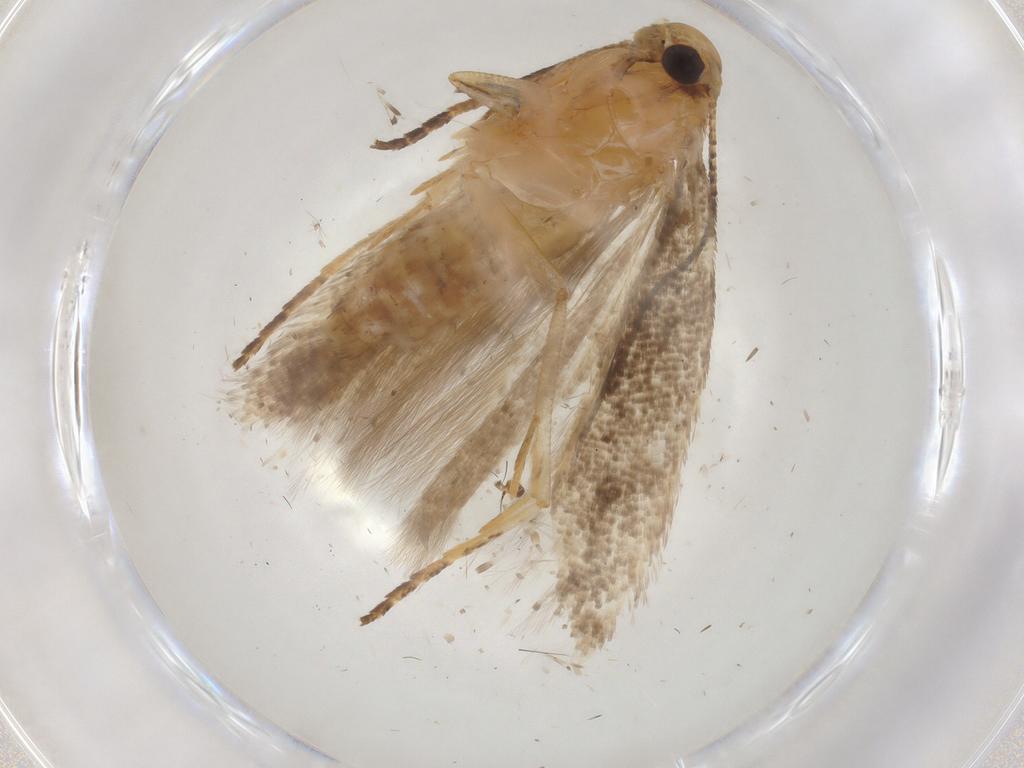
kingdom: Animalia
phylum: Arthropoda
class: Insecta
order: Lepidoptera
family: Gelechiidae
